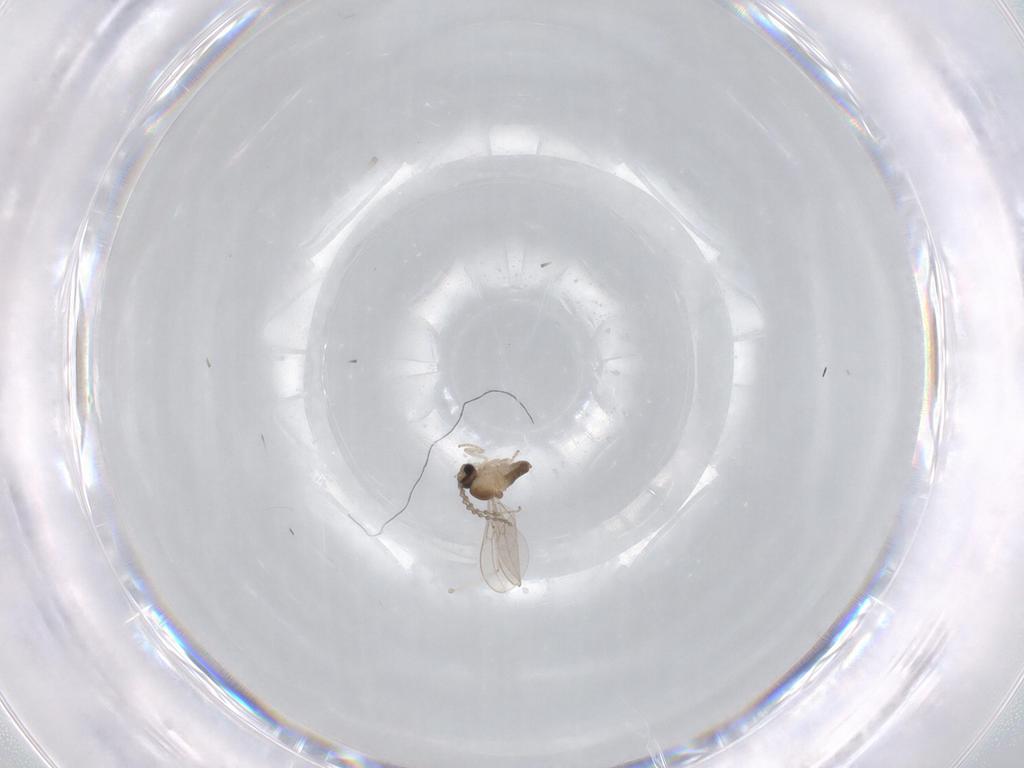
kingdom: Animalia
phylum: Arthropoda
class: Insecta
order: Diptera
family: Cecidomyiidae
